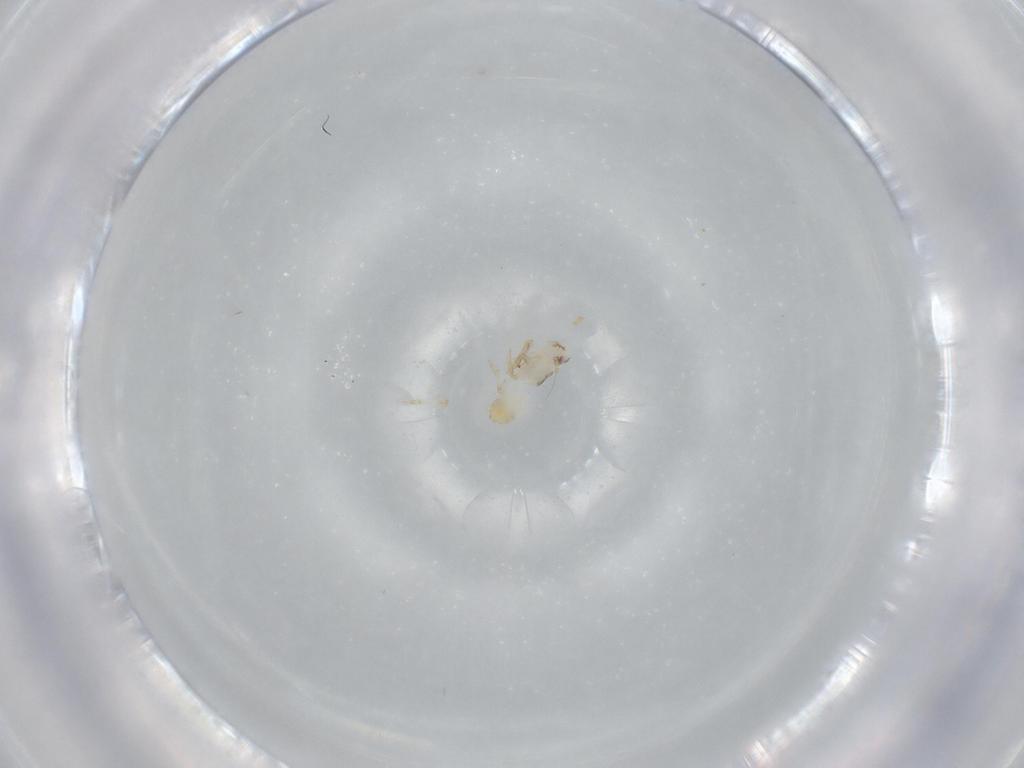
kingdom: Animalia
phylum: Arthropoda
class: Insecta
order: Hemiptera
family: Delphacidae
